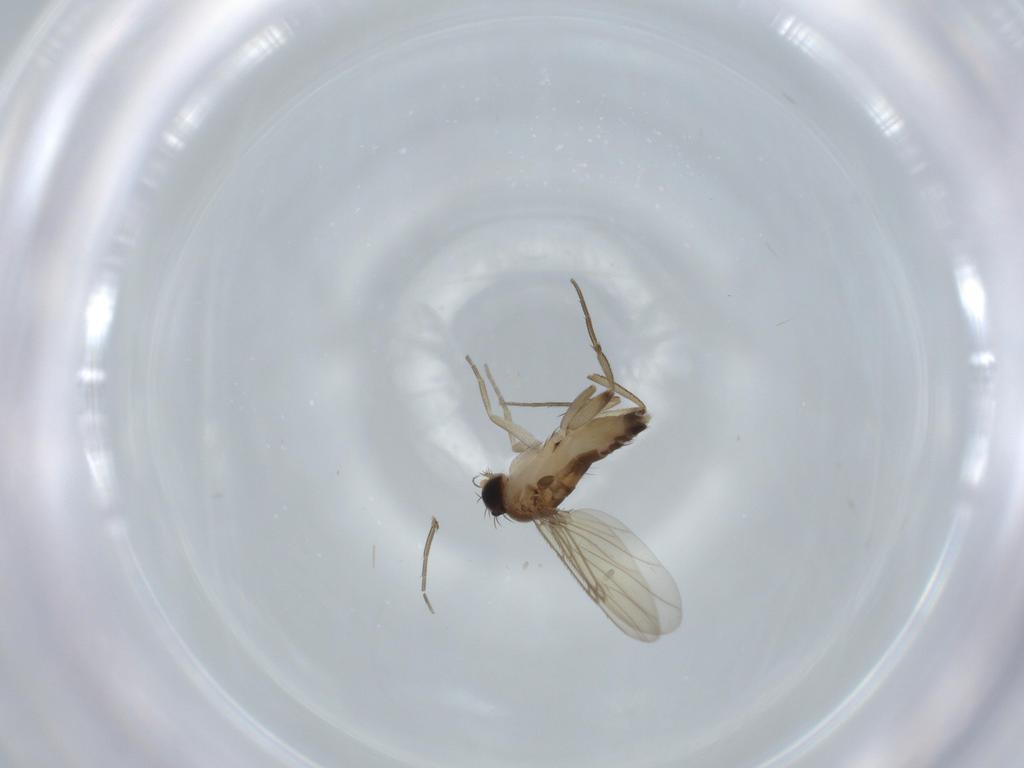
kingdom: Animalia
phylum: Arthropoda
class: Insecta
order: Diptera
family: Phoridae
